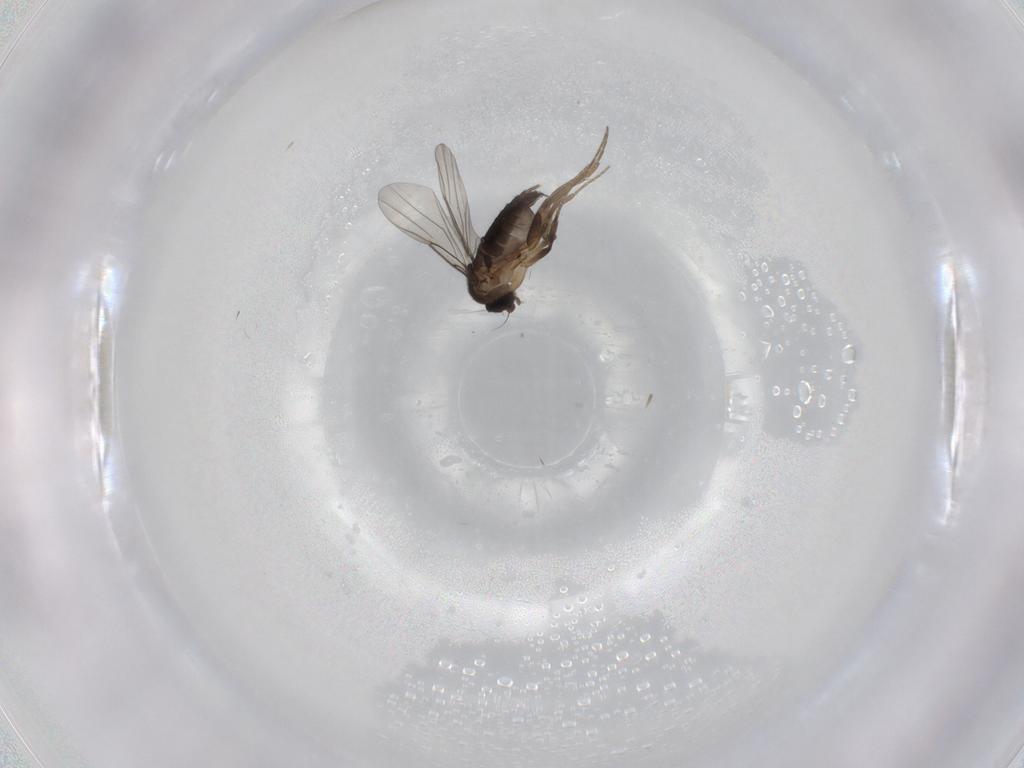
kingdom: Animalia
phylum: Arthropoda
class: Insecta
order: Diptera
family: Phoridae
